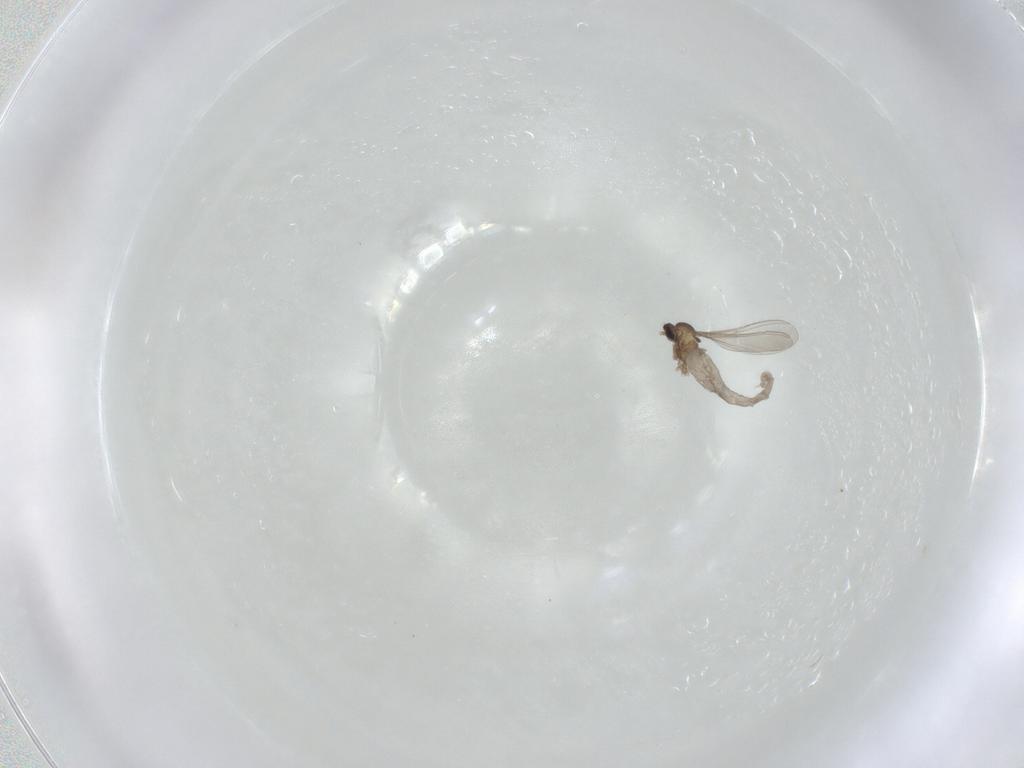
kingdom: Animalia
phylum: Arthropoda
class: Insecta
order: Diptera
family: Cecidomyiidae
